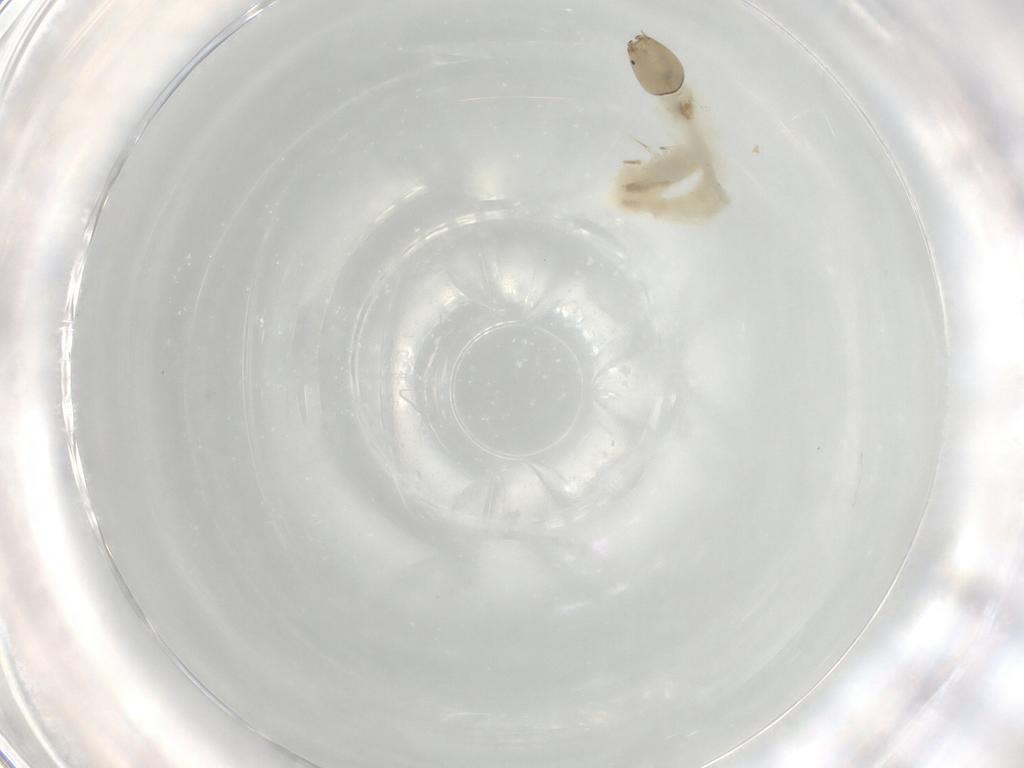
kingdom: Animalia
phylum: Arthropoda
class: Insecta
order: Diptera
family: Chironomidae
